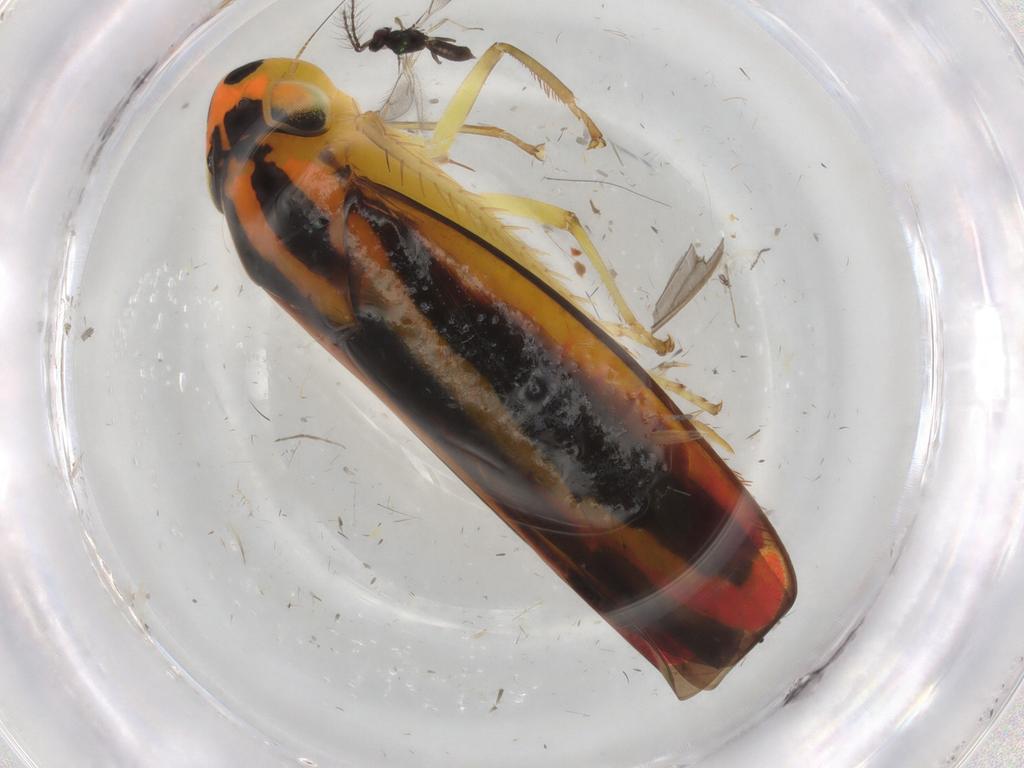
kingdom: Animalia
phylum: Arthropoda
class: Insecta
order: Hemiptera
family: Cicadellidae
